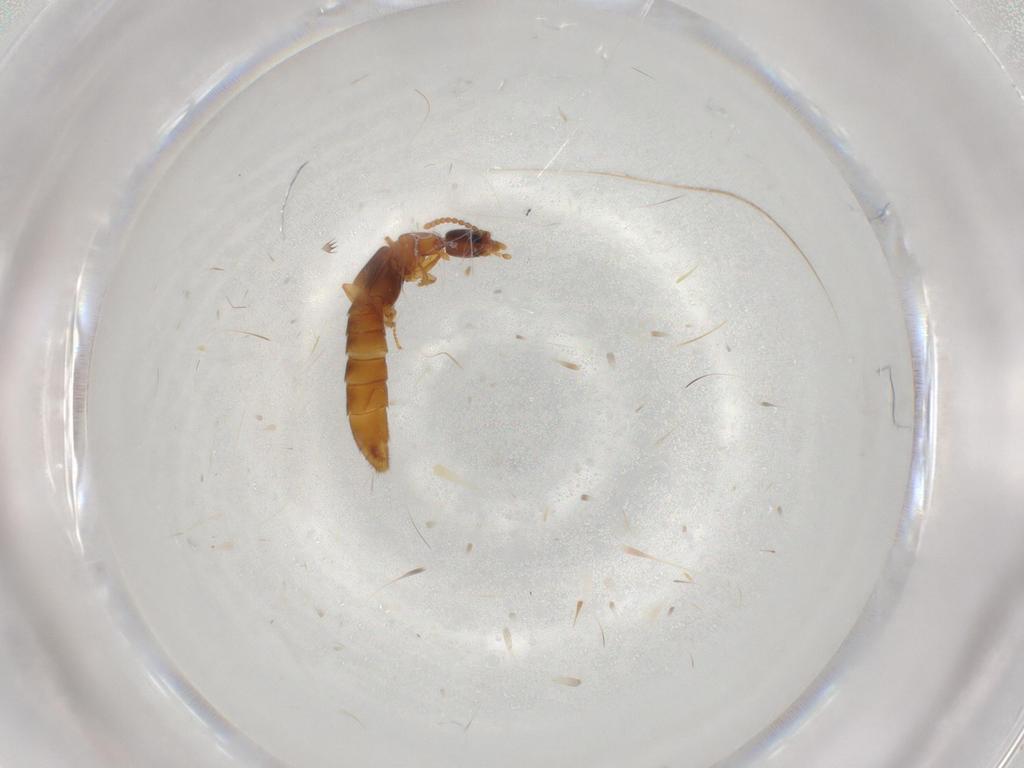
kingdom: Animalia
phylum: Arthropoda
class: Insecta
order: Coleoptera
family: Staphylinidae
